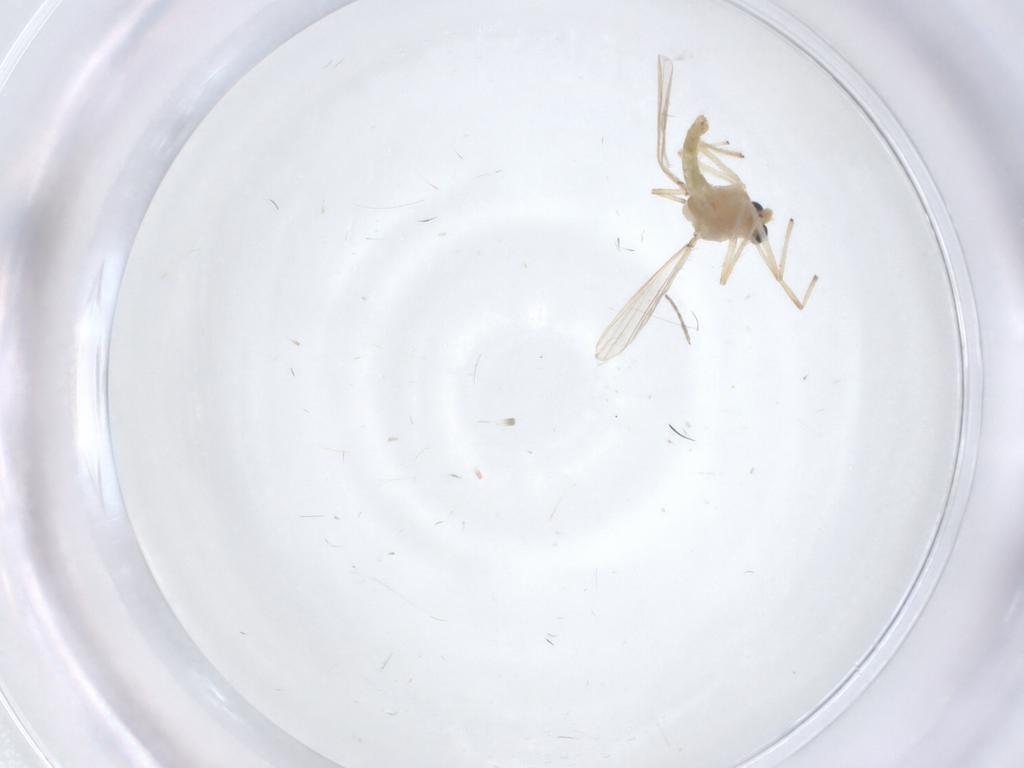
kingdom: Animalia
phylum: Arthropoda
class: Insecta
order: Diptera
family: Chironomidae
